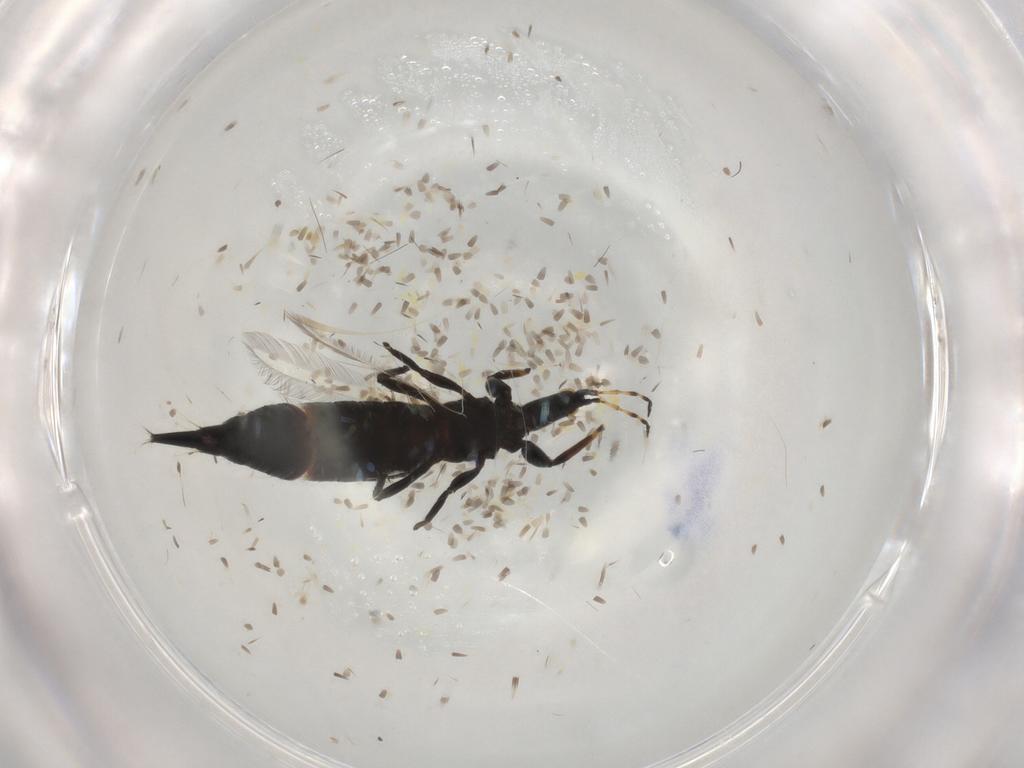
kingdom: Animalia
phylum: Arthropoda
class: Insecta
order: Thysanoptera
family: Phlaeothripidae
